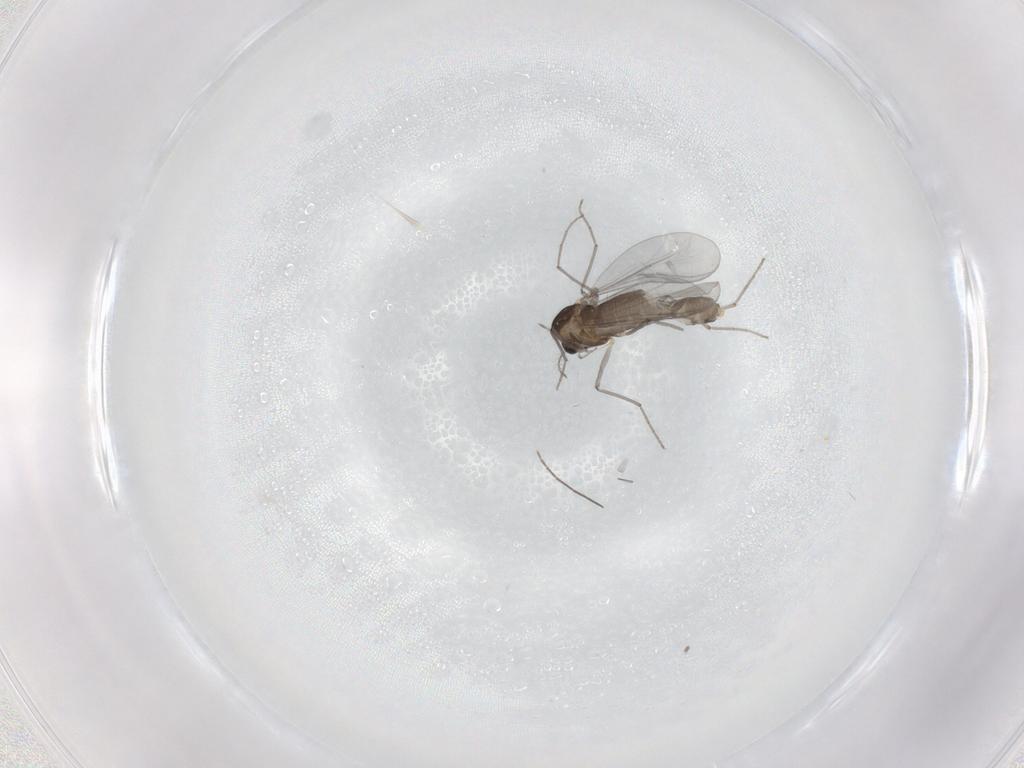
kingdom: Animalia
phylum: Arthropoda
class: Insecta
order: Diptera
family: Chironomidae
